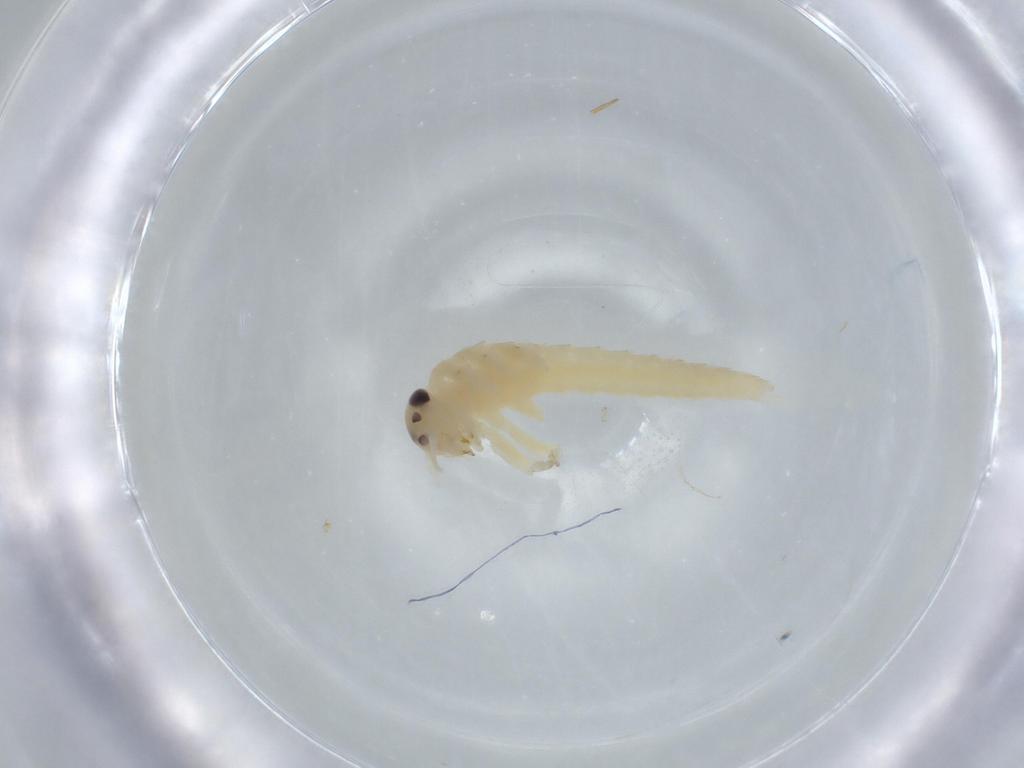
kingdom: Animalia
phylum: Arthropoda
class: Insecta
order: Ephemeroptera
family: Baetidae
